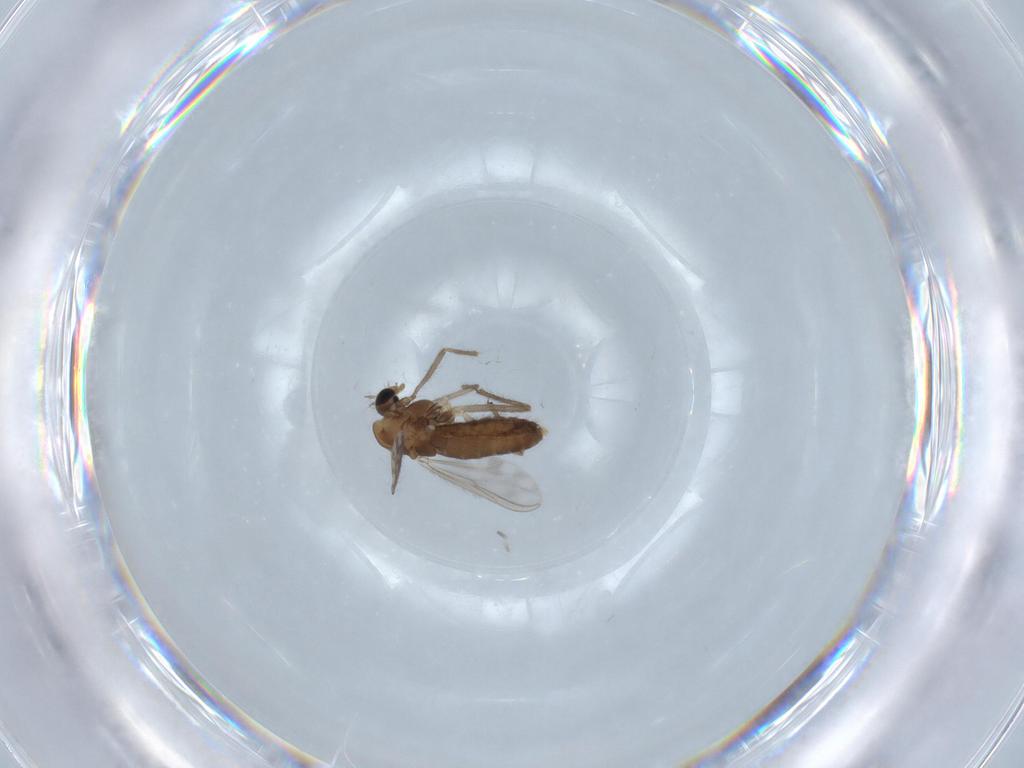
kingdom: Animalia
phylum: Arthropoda
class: Insecta
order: Diptera
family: Chironomidae
